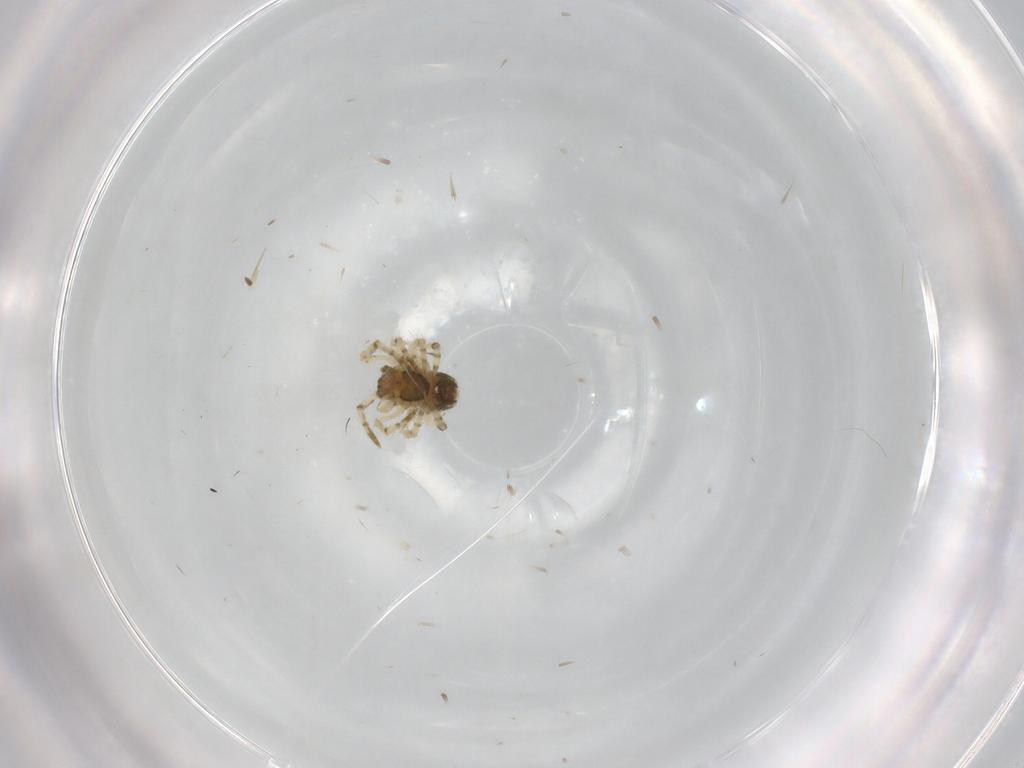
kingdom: Animalia
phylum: Arthropoda
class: Arachnida
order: Araneae
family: Theridiidae
